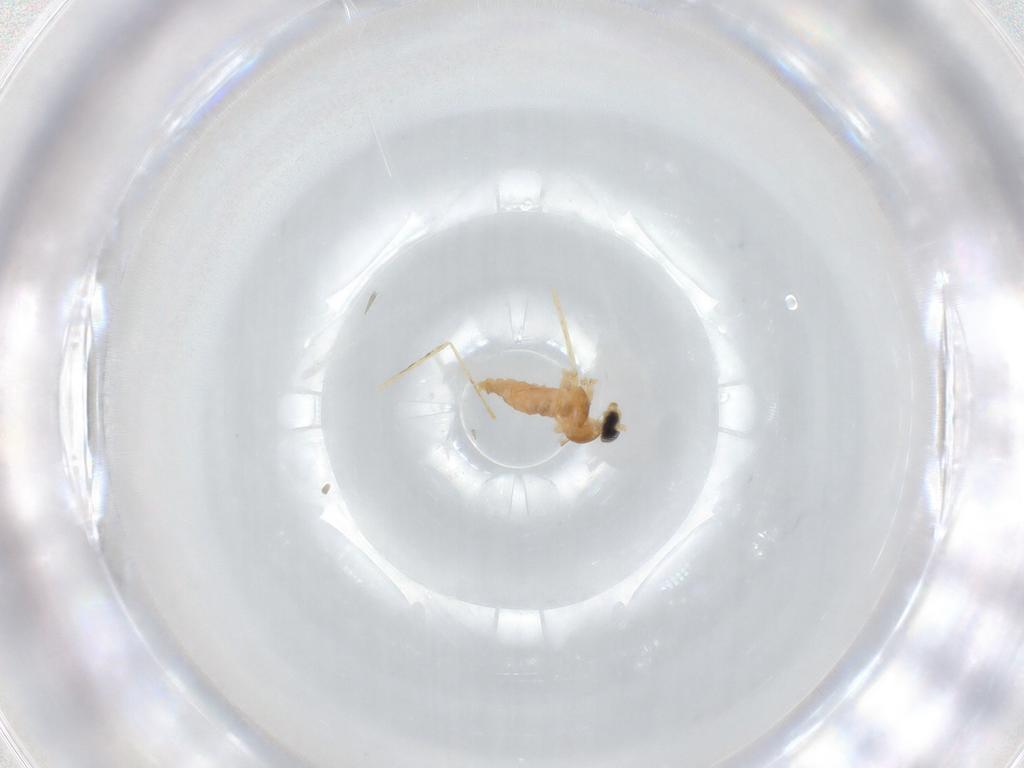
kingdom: Animalia
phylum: Arthropoda
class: Insecta
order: Diptera
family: Cecidomyiidae
